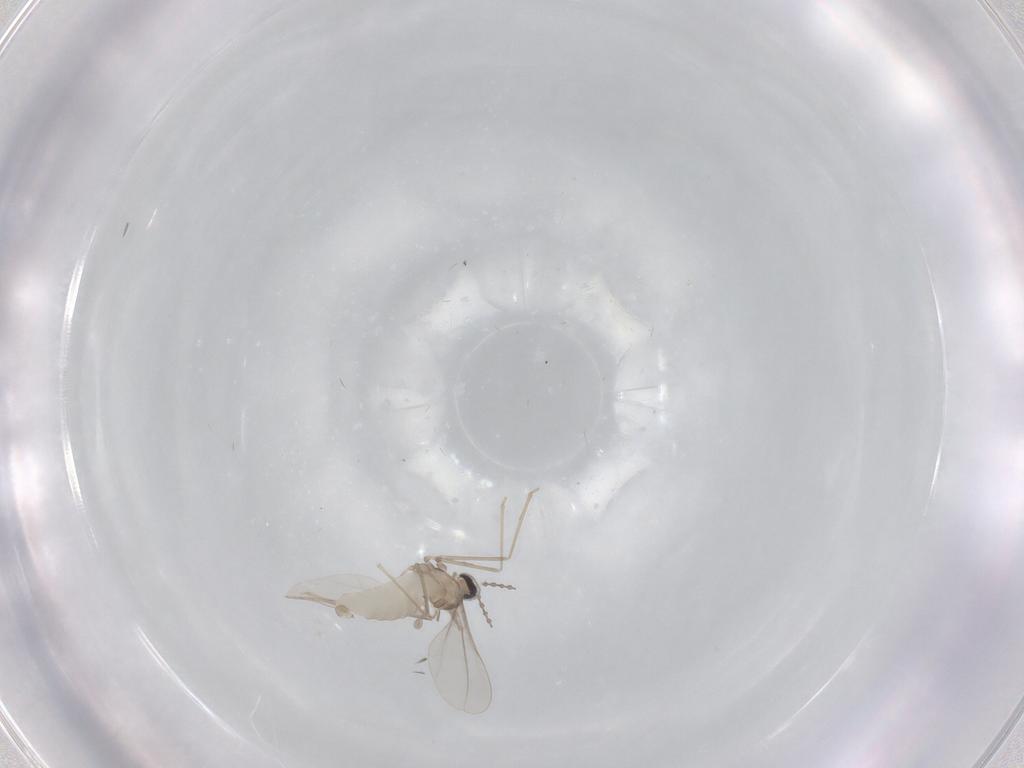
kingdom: Animalia
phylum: Arthropoda
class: Insecta
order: Diptera
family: Cecidomyiidae
